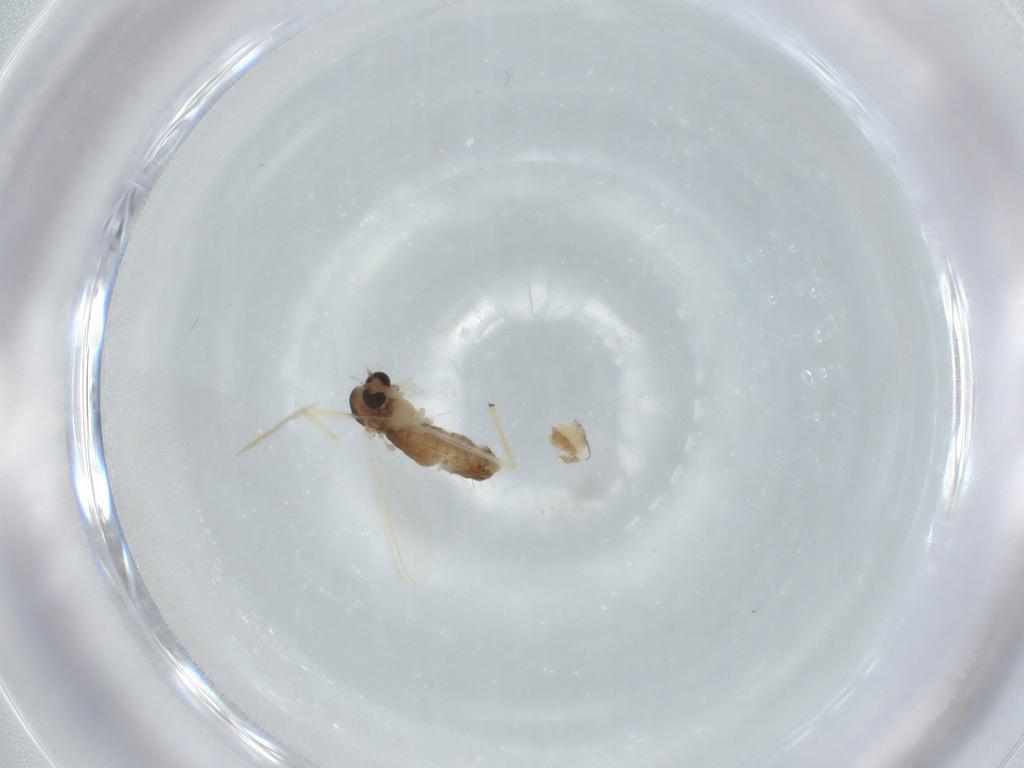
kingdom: Animalia
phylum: Arthropoda
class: Insecta
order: Diptera
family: Chironomidae
